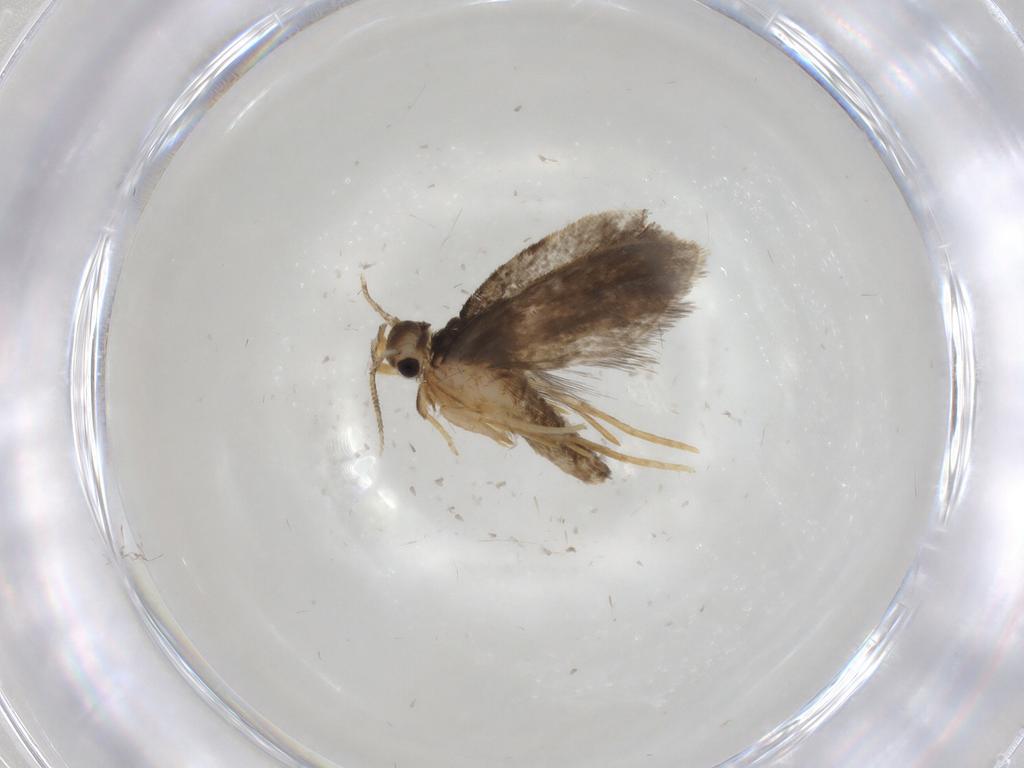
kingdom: Animalia
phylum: Arthropoda
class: Insecta
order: Lepidoptera
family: Psychidae
